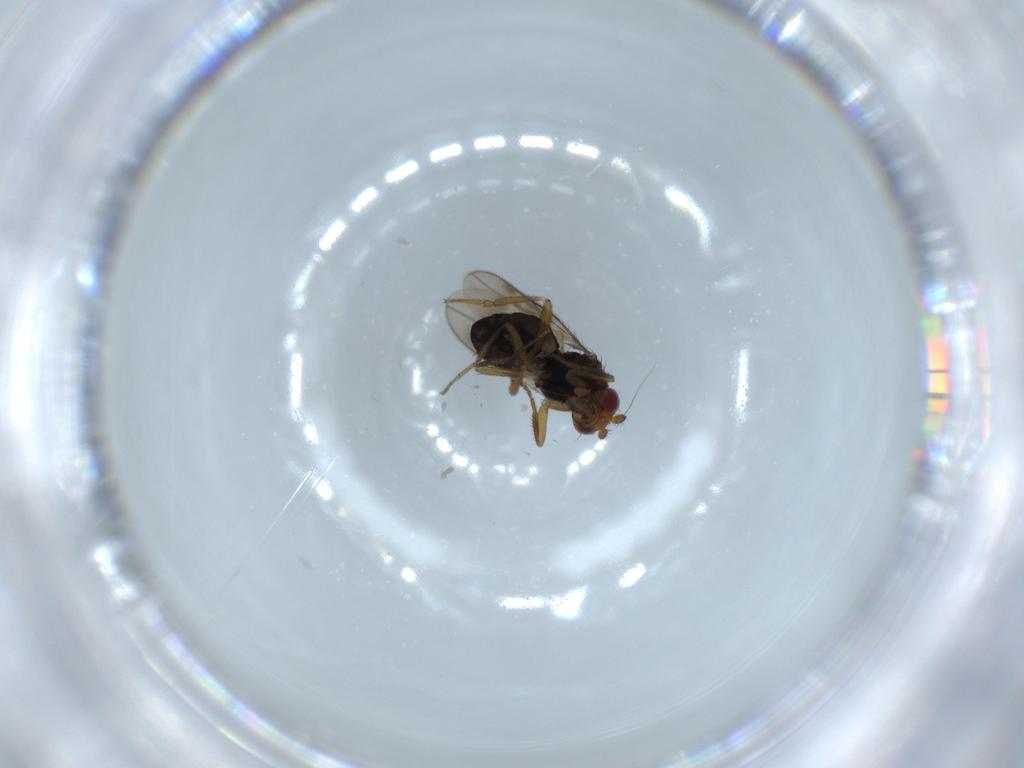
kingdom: Animalia
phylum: Arthropoda
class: Insecta
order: Diptera
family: Sphaeroceridae
